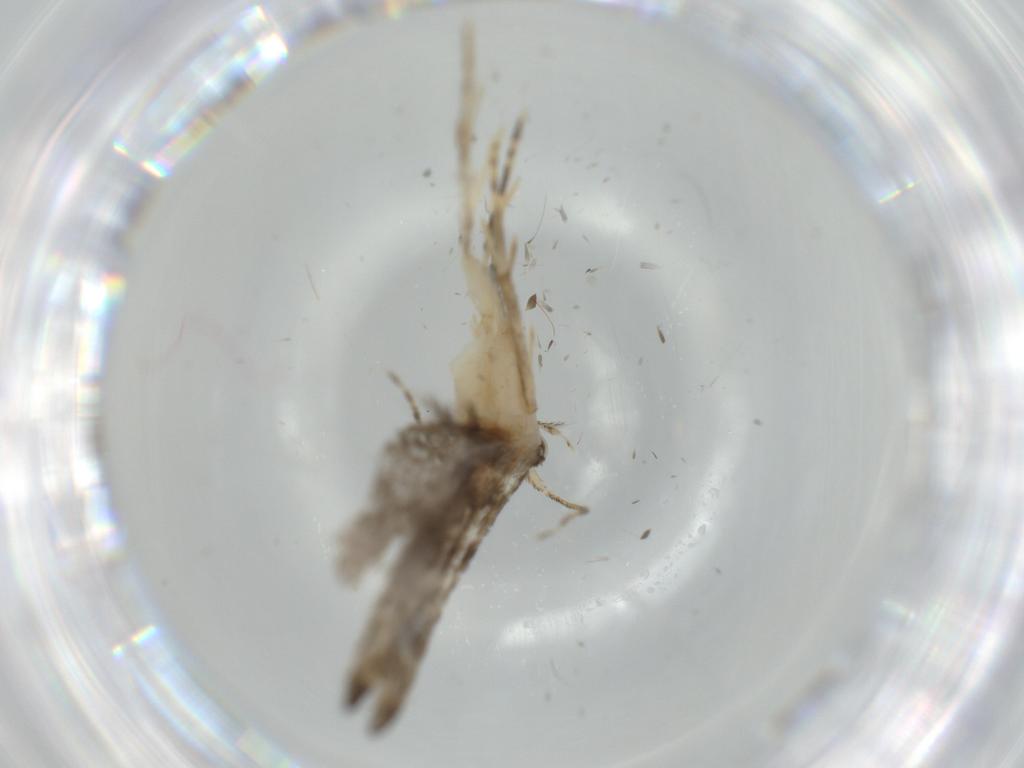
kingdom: Animalia
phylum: Arthropoda
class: Insecta
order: Lepidoptera
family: Tineidae
